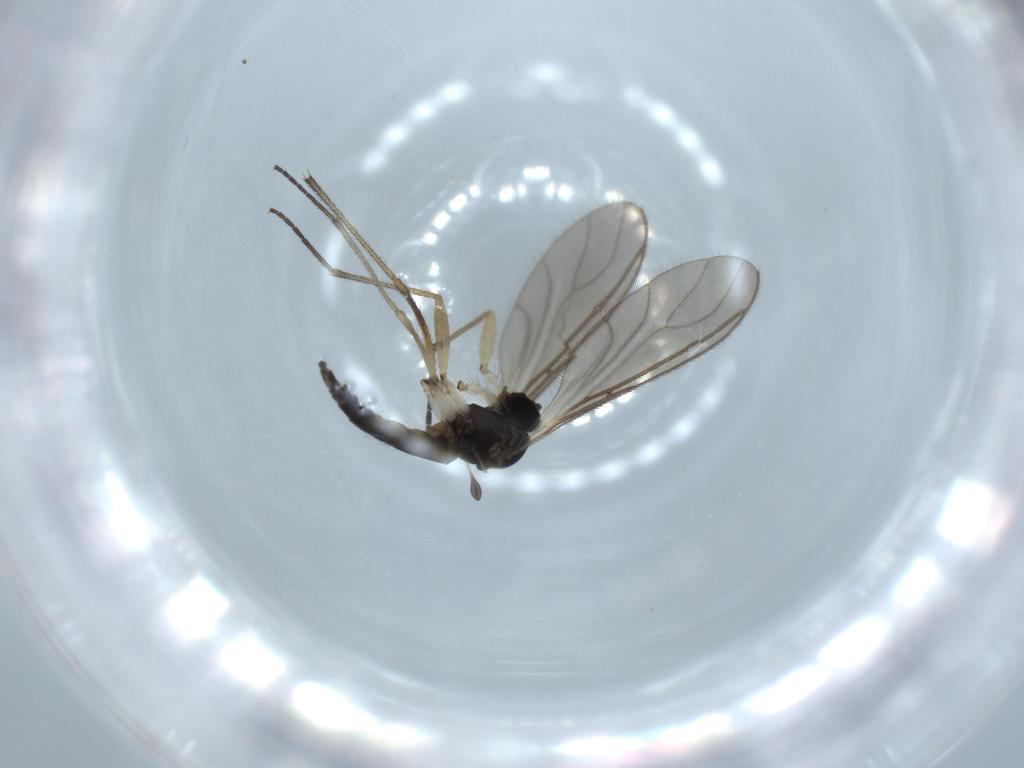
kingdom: Animalia
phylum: Arthropoda
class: Insecta
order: Diptera
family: Sciaridae
